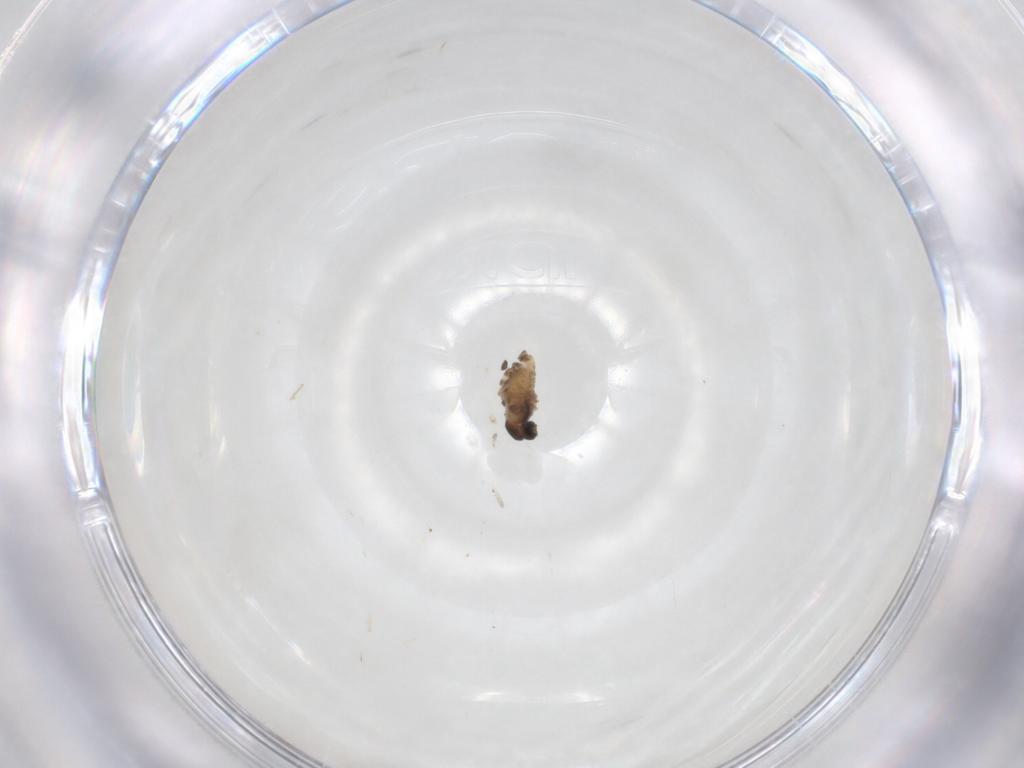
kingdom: Animalia
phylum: Arthropoda
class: Insecta
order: Diptera
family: Cecidomyiidae
